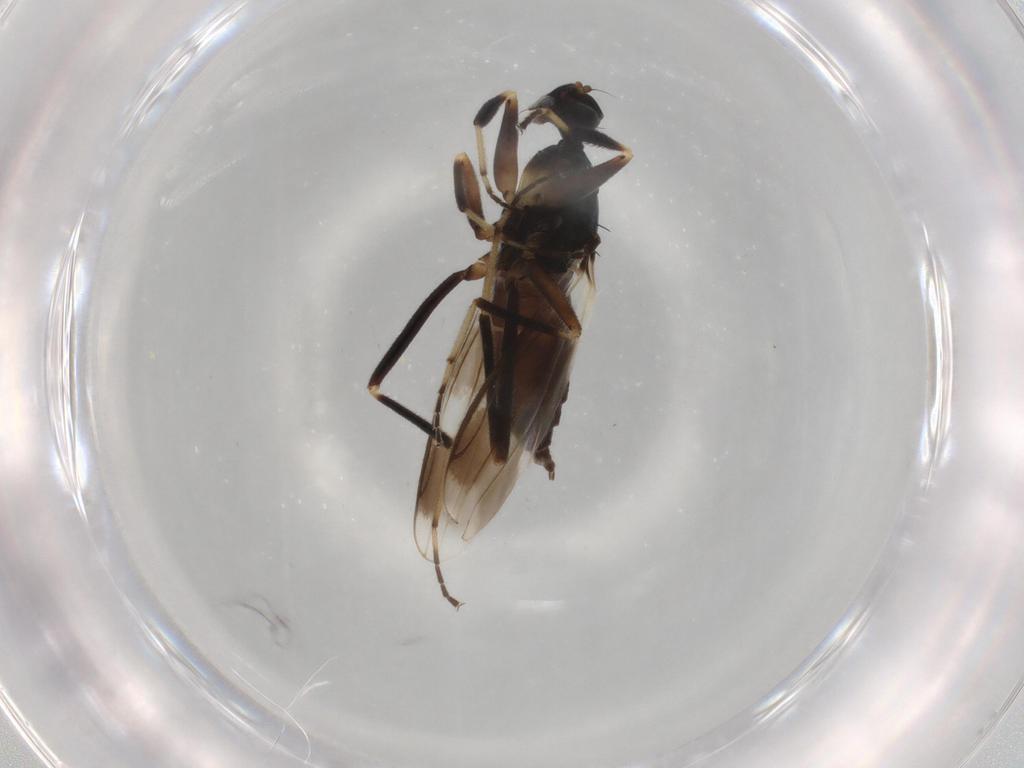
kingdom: Animalia
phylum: Arthropoda
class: Insecta
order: Diptera
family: Hybotidae
